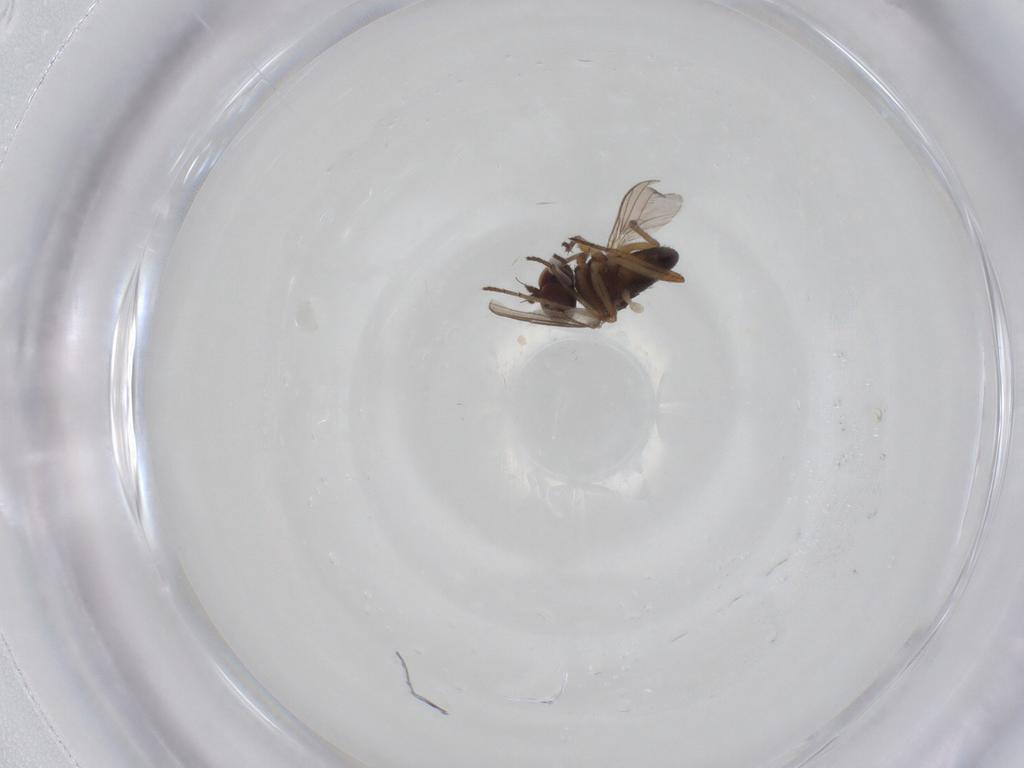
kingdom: Animalia
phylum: Arthropoda
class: Insecta
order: Diptera
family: Dolichopodidae
